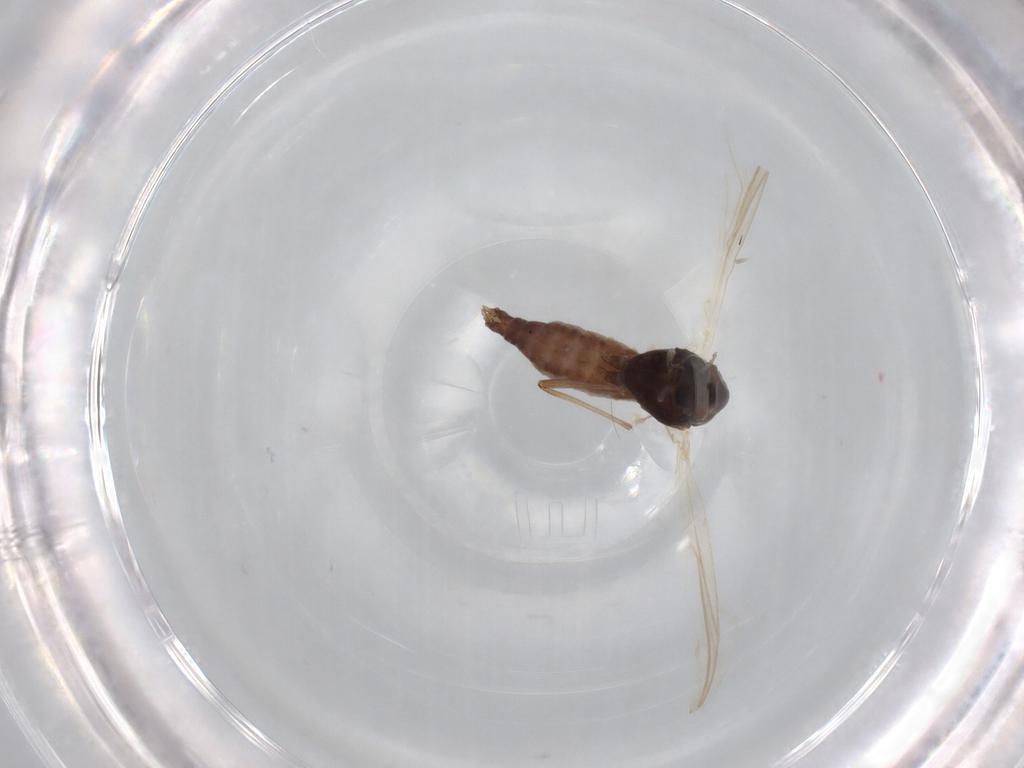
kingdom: Animalia
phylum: Arthropoda
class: Insecta
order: Diptera
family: Chironomidae
